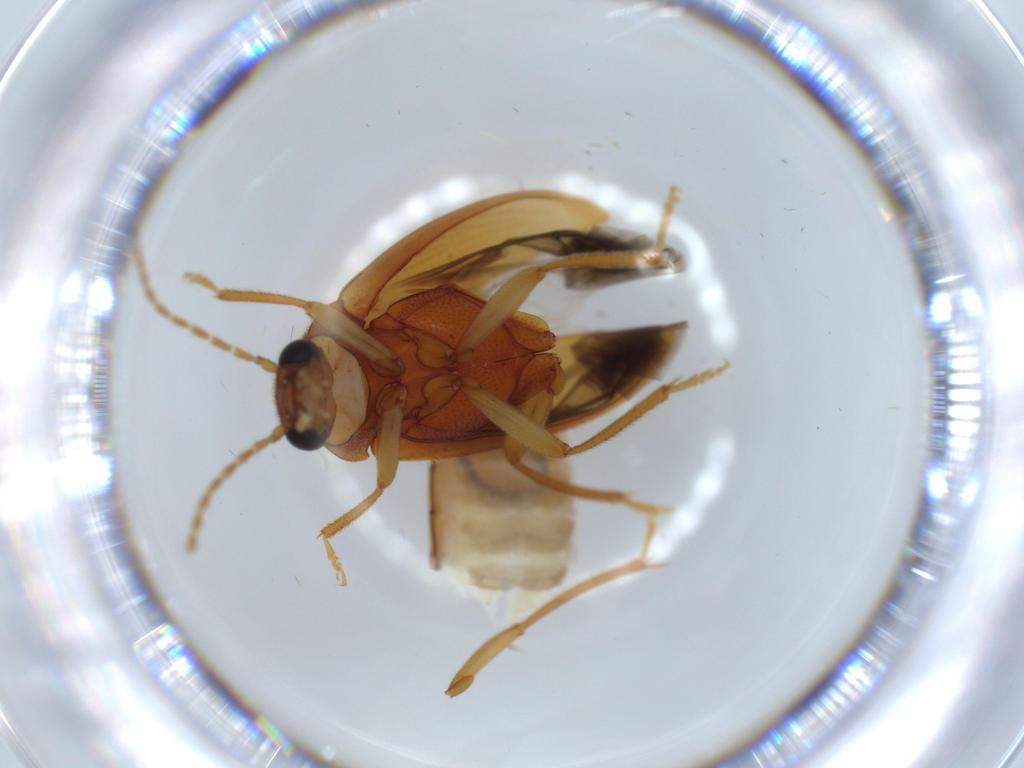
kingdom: Animalia
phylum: Arthropoda
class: Insecta
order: Coleoptera
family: Ptilodactylidae
